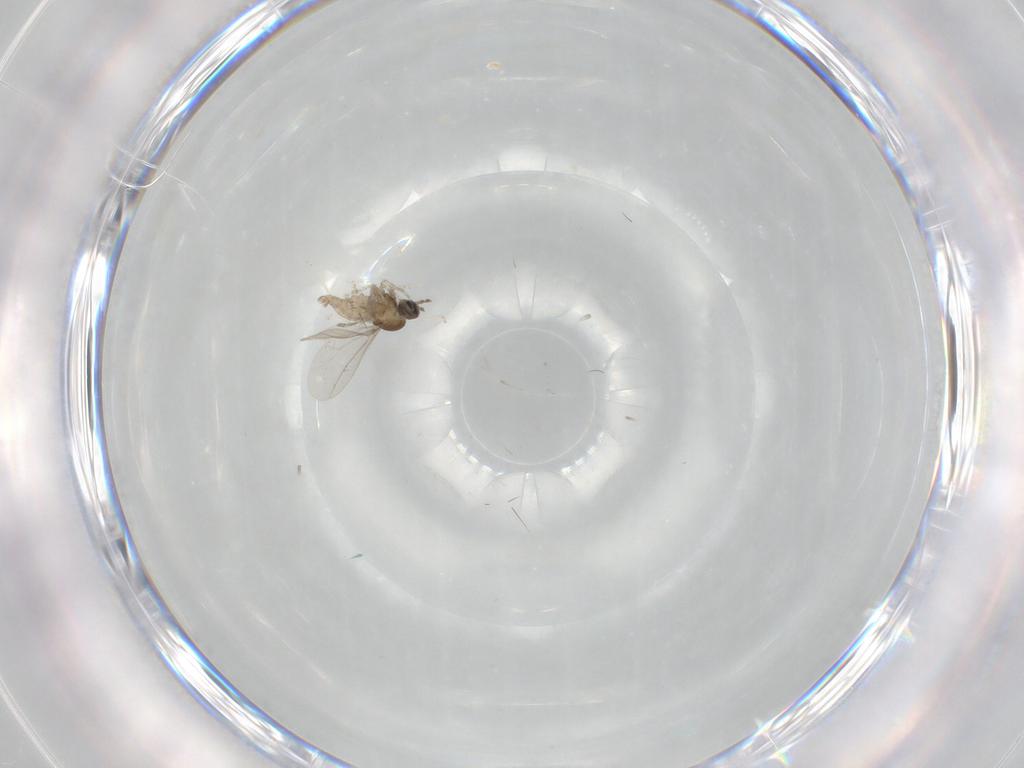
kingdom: Animalia
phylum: Arthropoda
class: Insecta
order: Diptera
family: Cecidomyiidae
